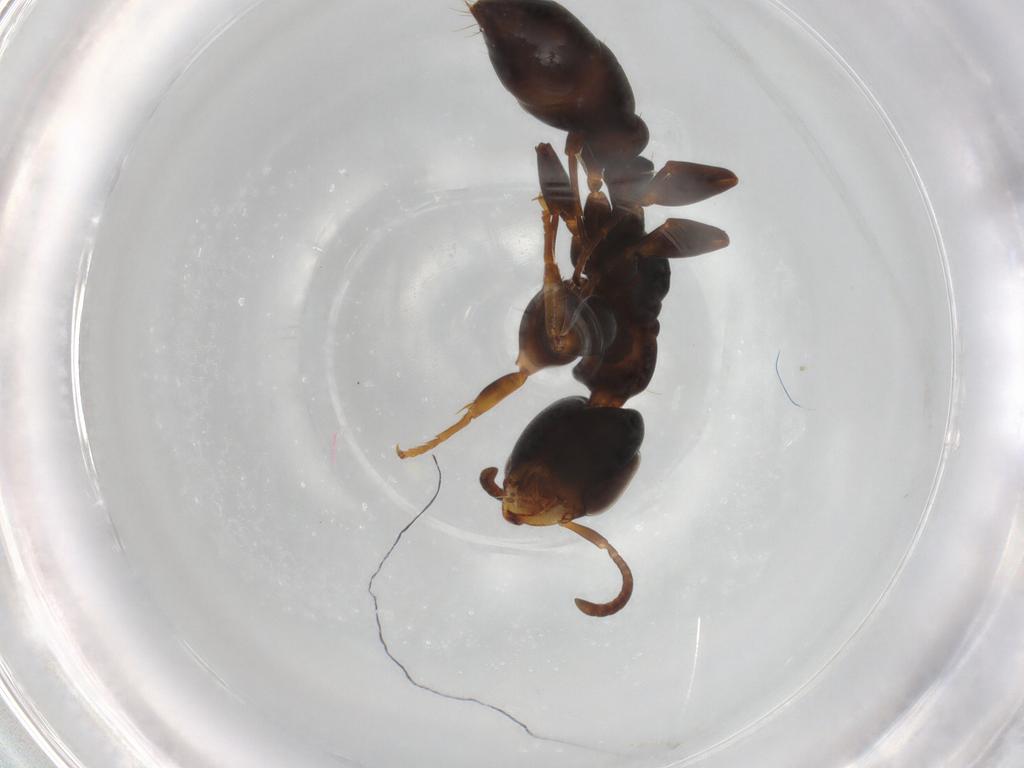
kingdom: Animalia
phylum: Arthropoda
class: Insecta
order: Hymenoptera
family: Formicidae
